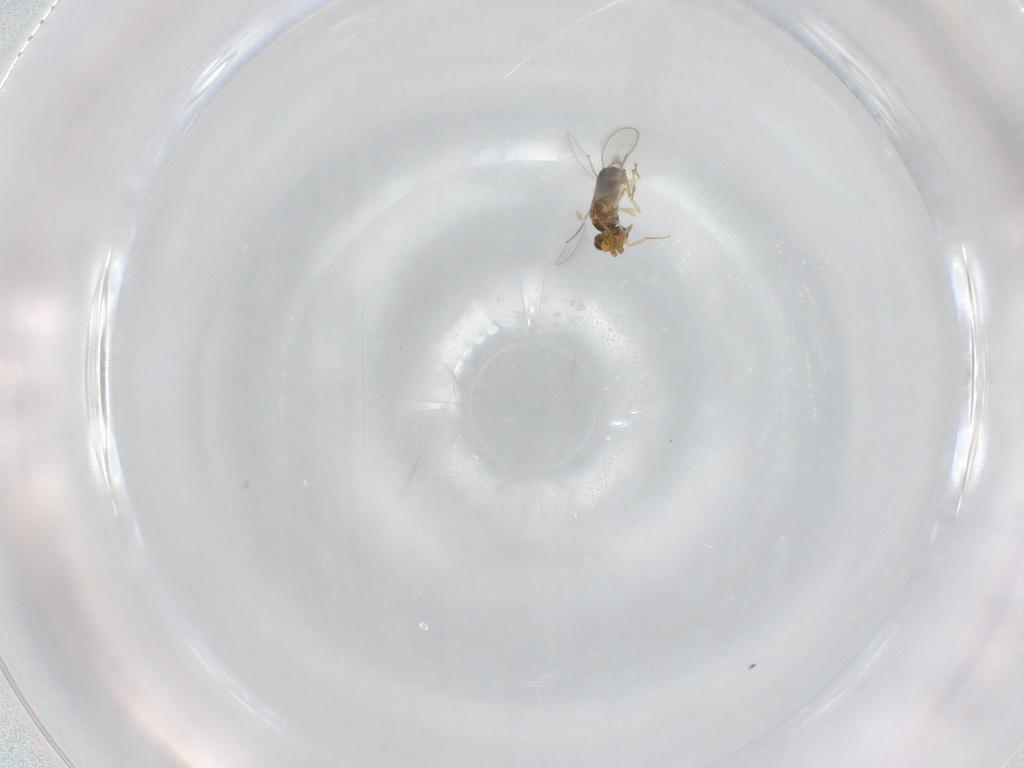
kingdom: Animalia
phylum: Arthropoda
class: Insecta
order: Hymenoptera
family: Aphelinidae
